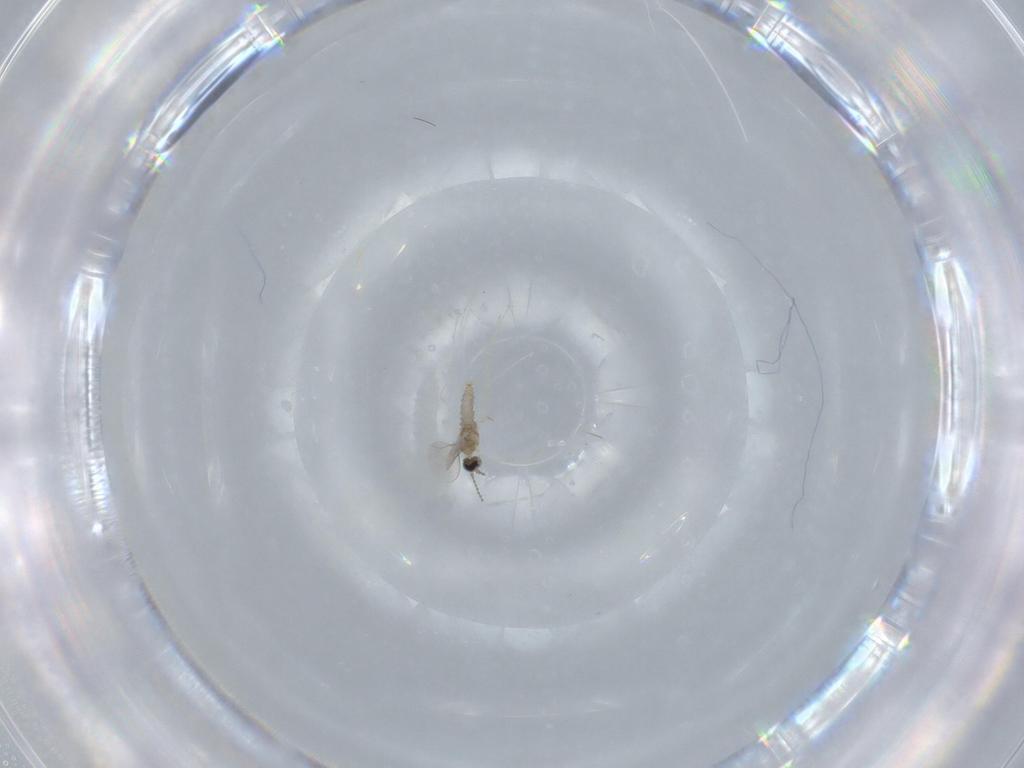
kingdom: Animalia
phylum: Arthropoda
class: Insecta
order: Diptera
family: Cecidomyiidae
